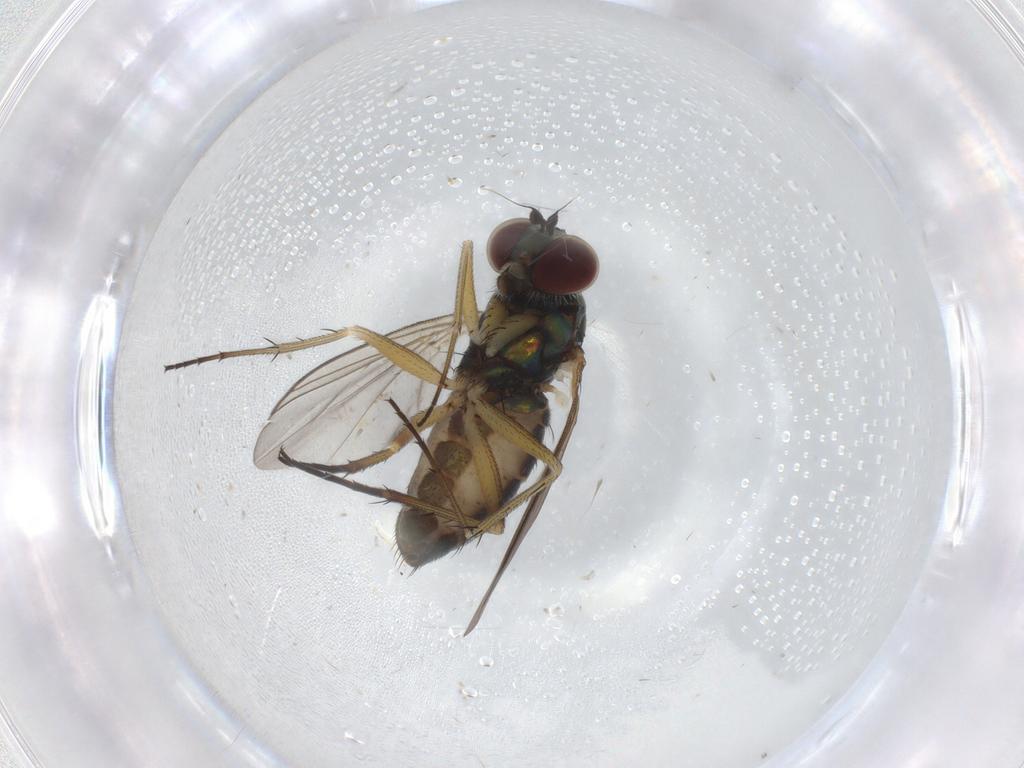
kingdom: Animalia
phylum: Arthropoda
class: Insecta
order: Diptera
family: Dolichopodidae
